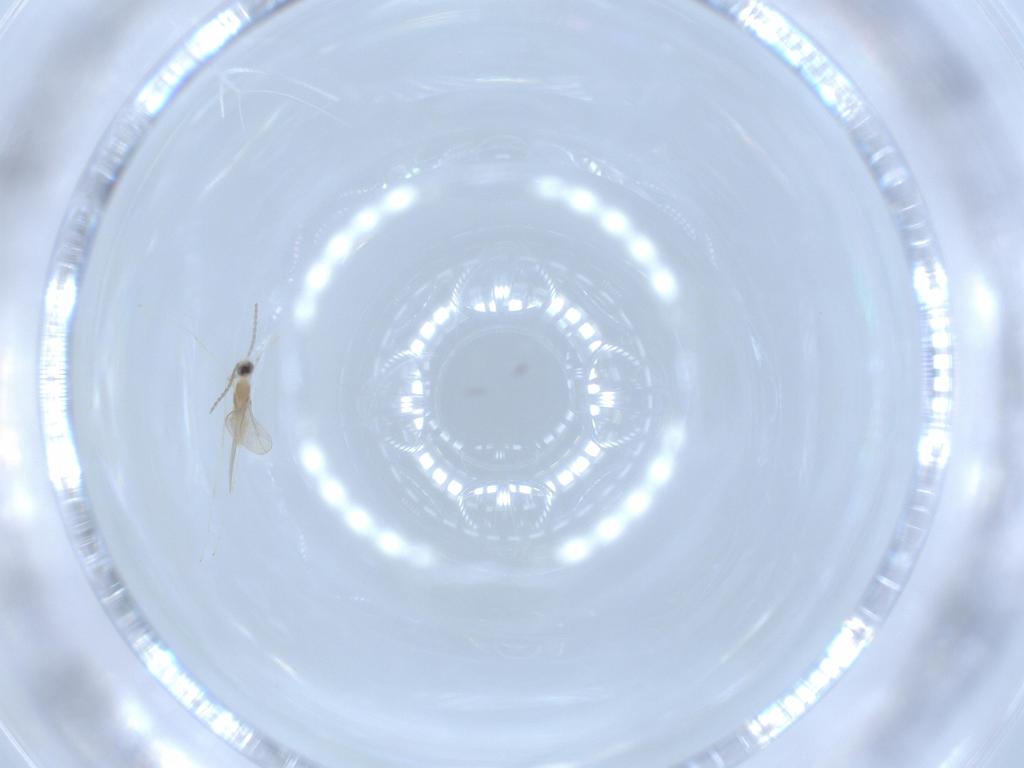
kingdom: Animalia
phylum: Arthropoda
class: Insecta
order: Diptera
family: Cecidomyiidae
